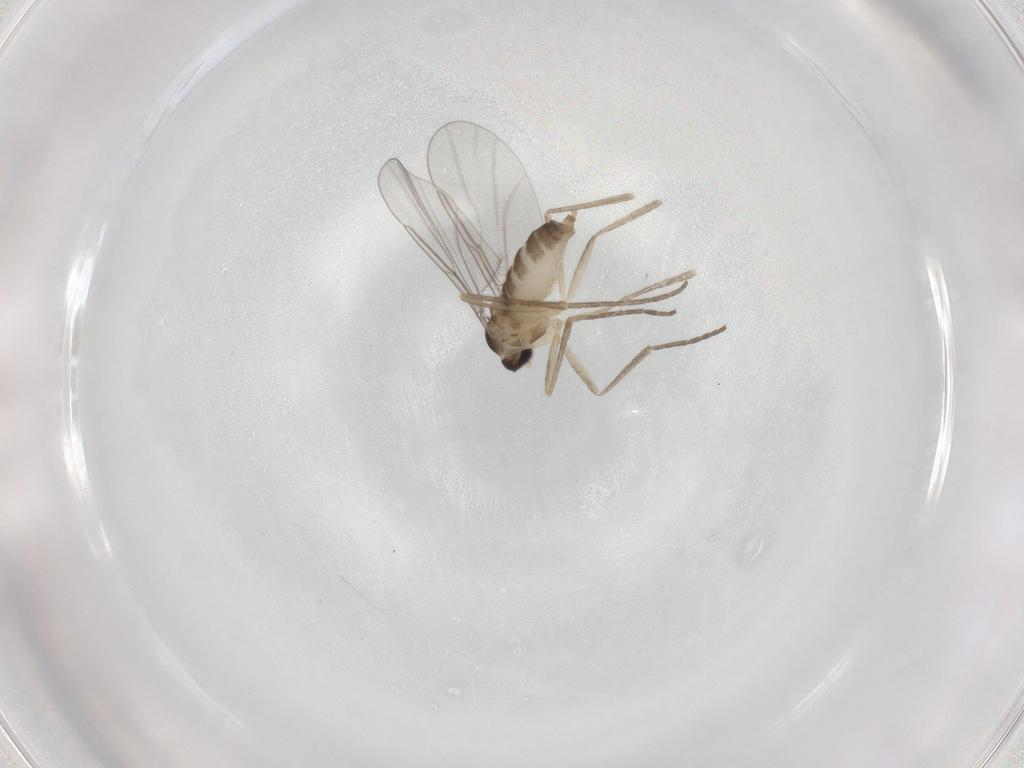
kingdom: Animalia
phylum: Arthropoda
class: Insecta
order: Diptera
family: Cecidomyiidae
